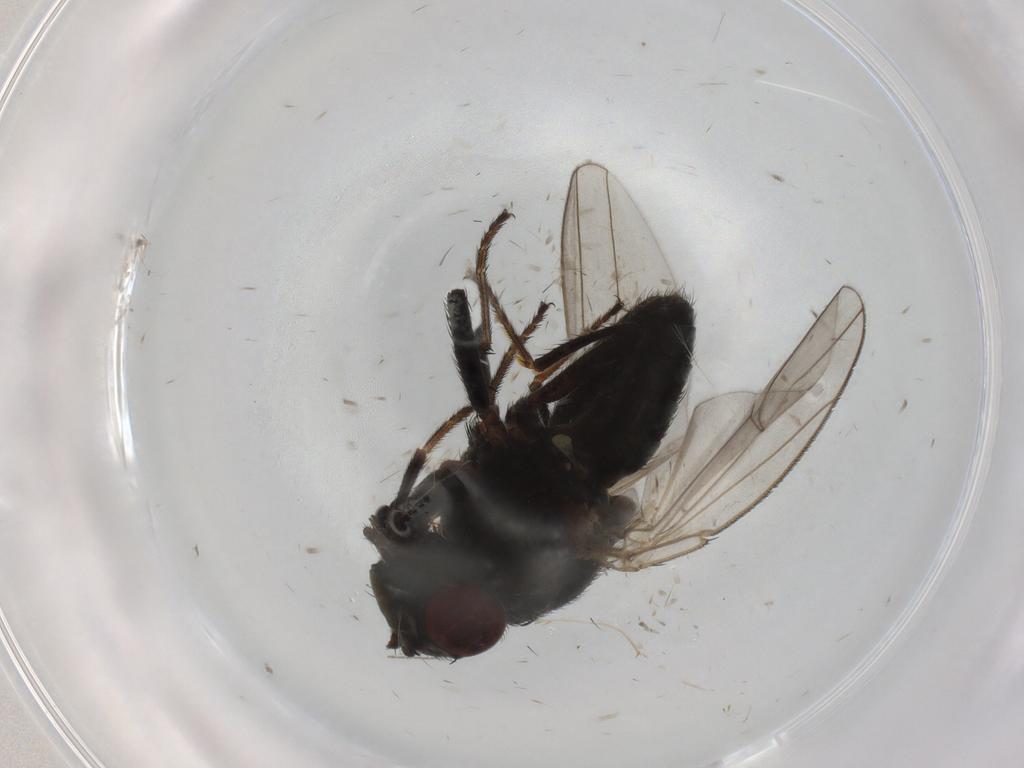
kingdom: Animalia
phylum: Arthropoda
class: Insecta
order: Diptera
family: Ephydridae
